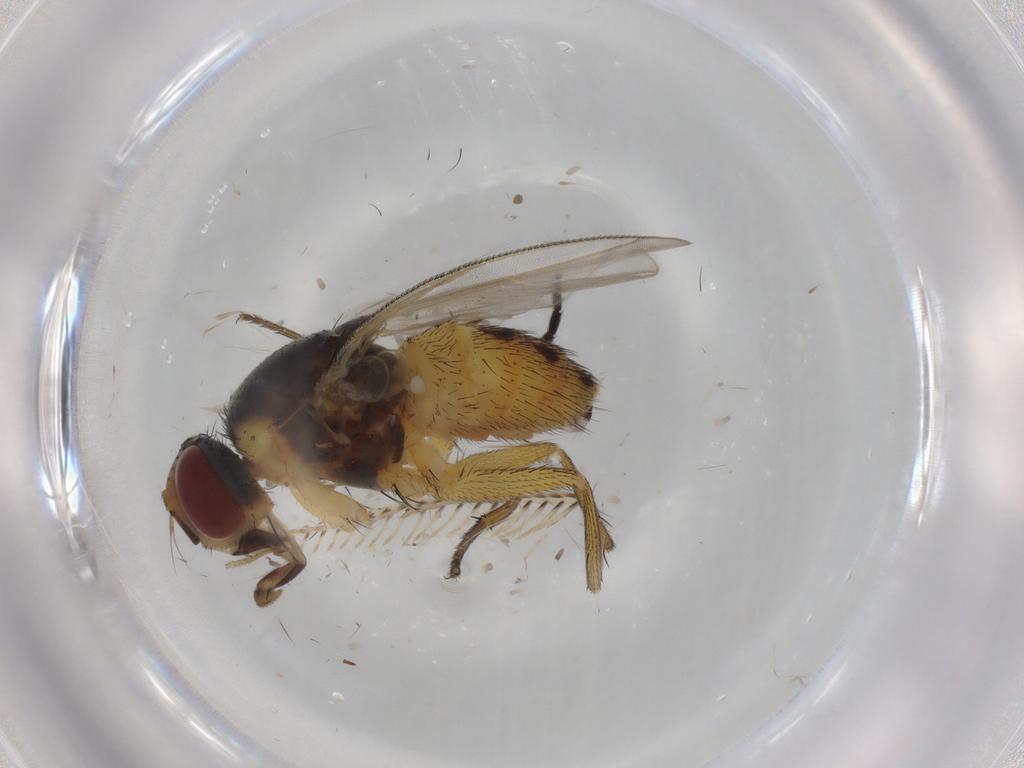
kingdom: Animalia
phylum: Arthropoda
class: Insecta
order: Diptera
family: Muscidae
